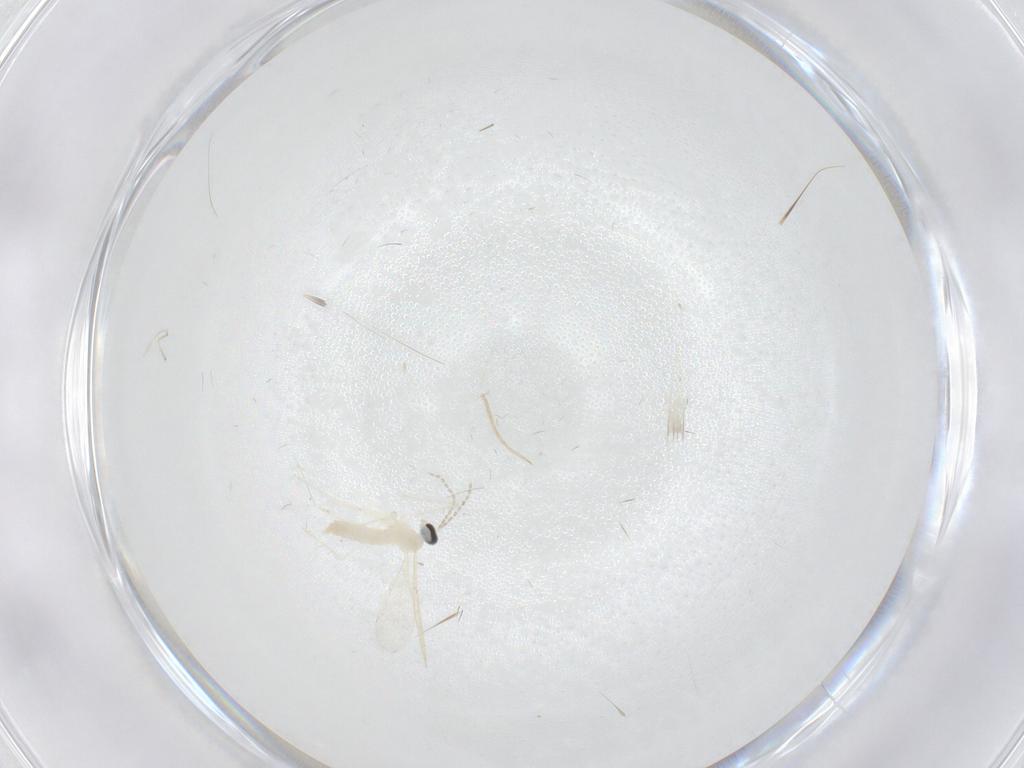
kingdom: Animalia
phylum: Arthropoda
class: Insecta
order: Diptera
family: Cecidomyiidae
